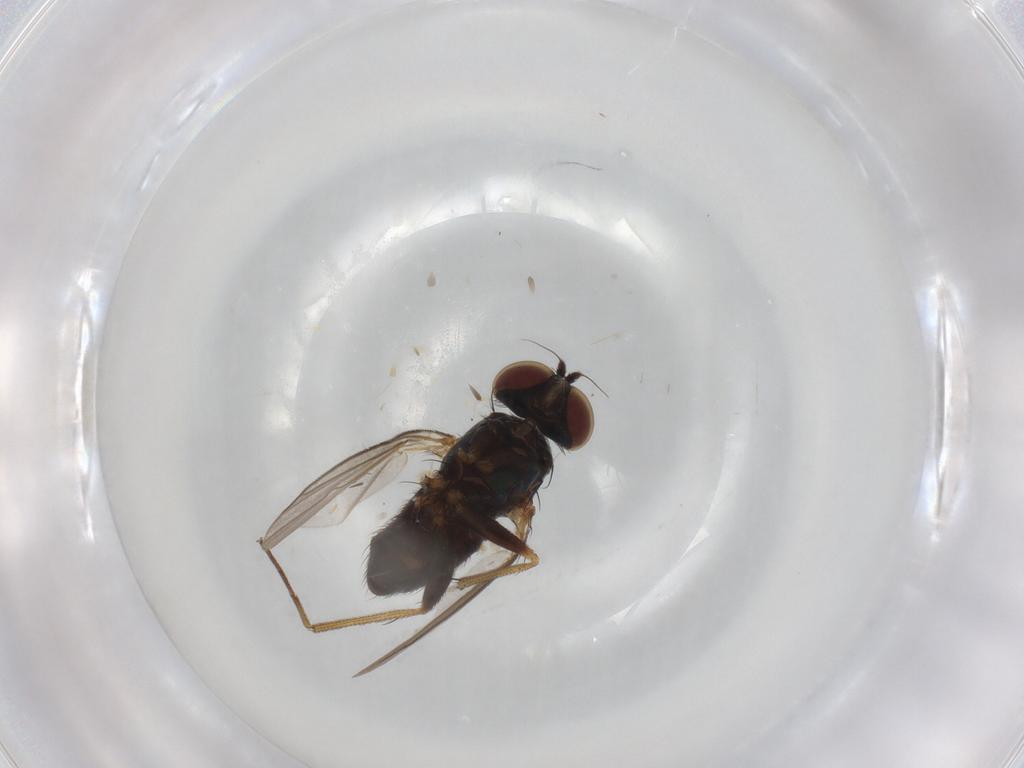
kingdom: Animalia
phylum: Arthropoda
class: Insecta
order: Diptera
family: Dolichopodidae
